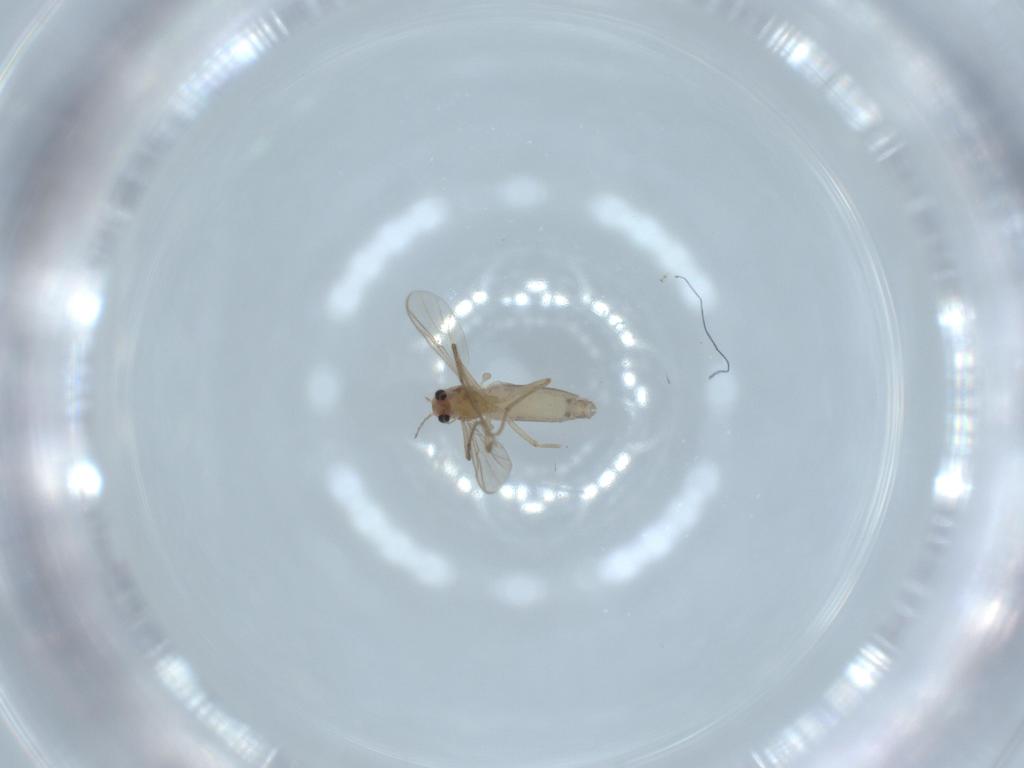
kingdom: Animalia
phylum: Arthropoda
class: Insecta
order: Diptera
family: Chironomidae
